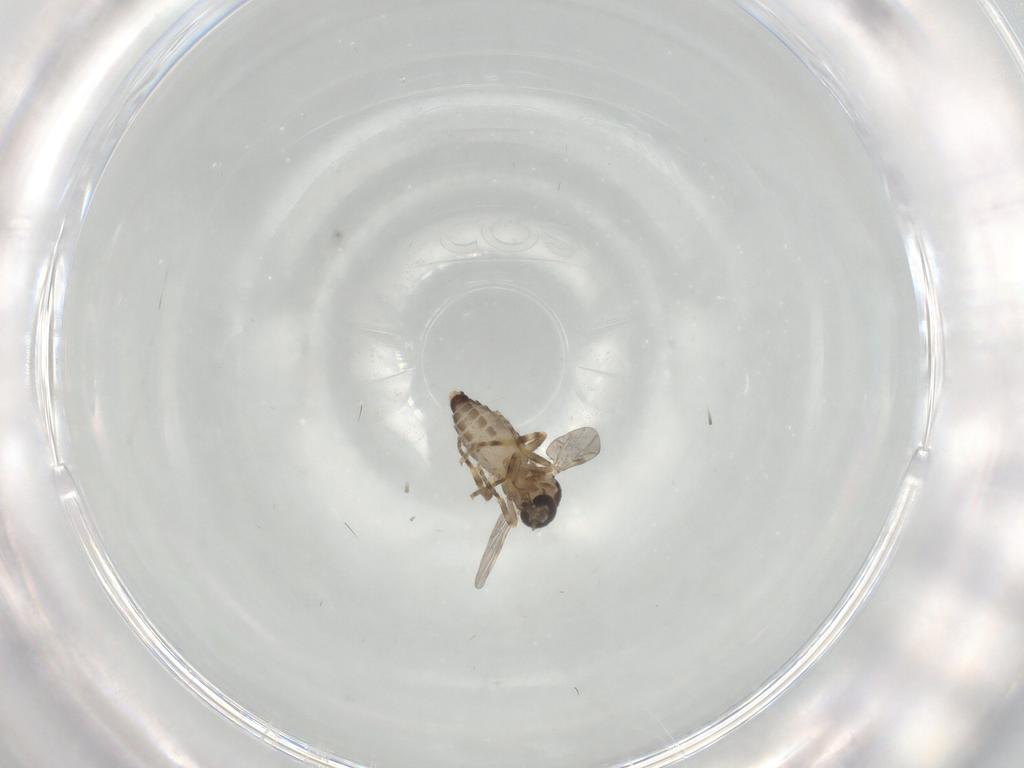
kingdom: Animalia
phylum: Arthropoda
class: Insecta
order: Diptera
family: Ceratopogonidae
